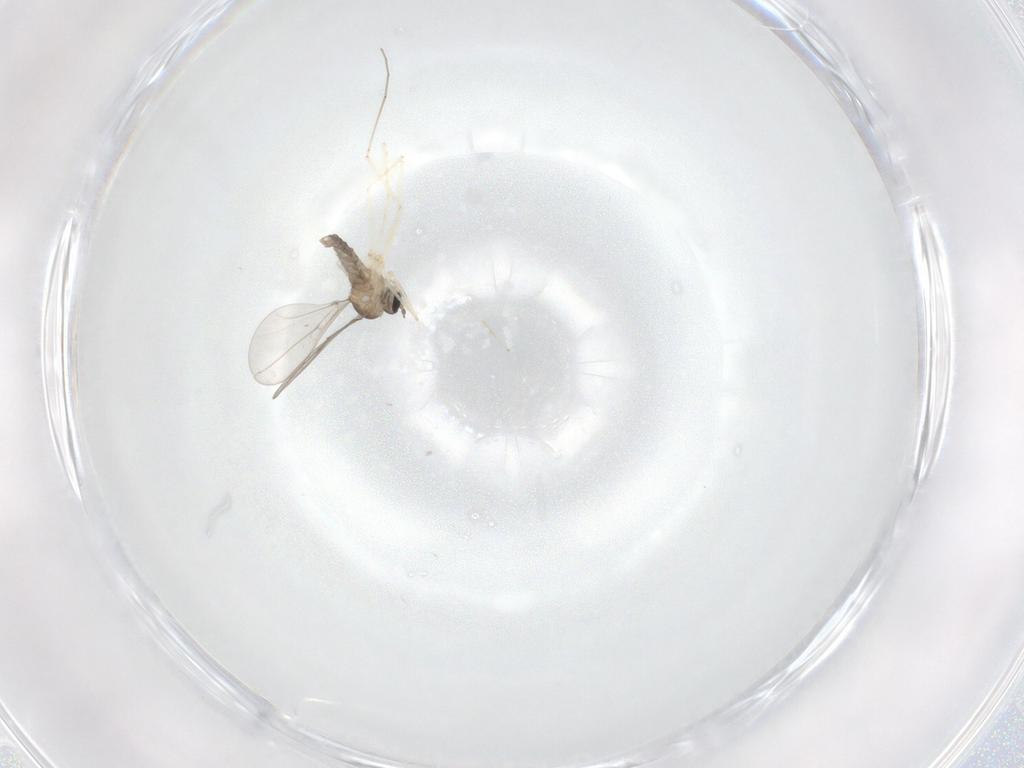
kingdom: Animalia
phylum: Arthropoda
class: Insecta
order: Diptera
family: Cecidomyiidae
